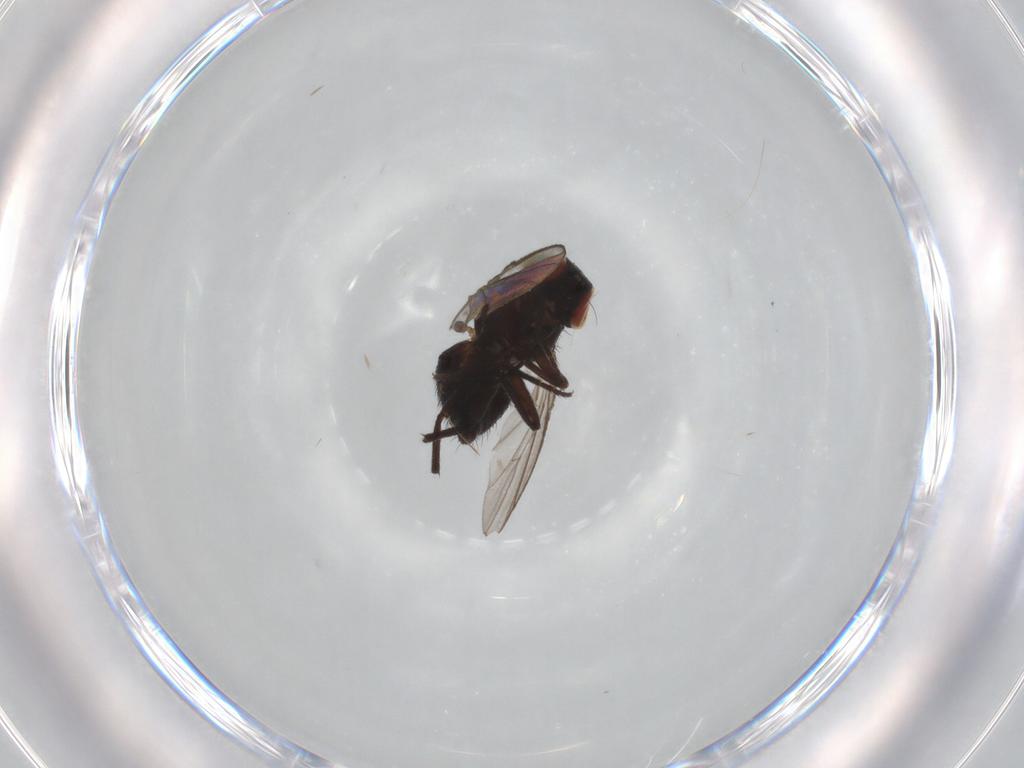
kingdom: Animalia
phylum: Arthropoda
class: Insecta
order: Diptera
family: Agromyzidae
